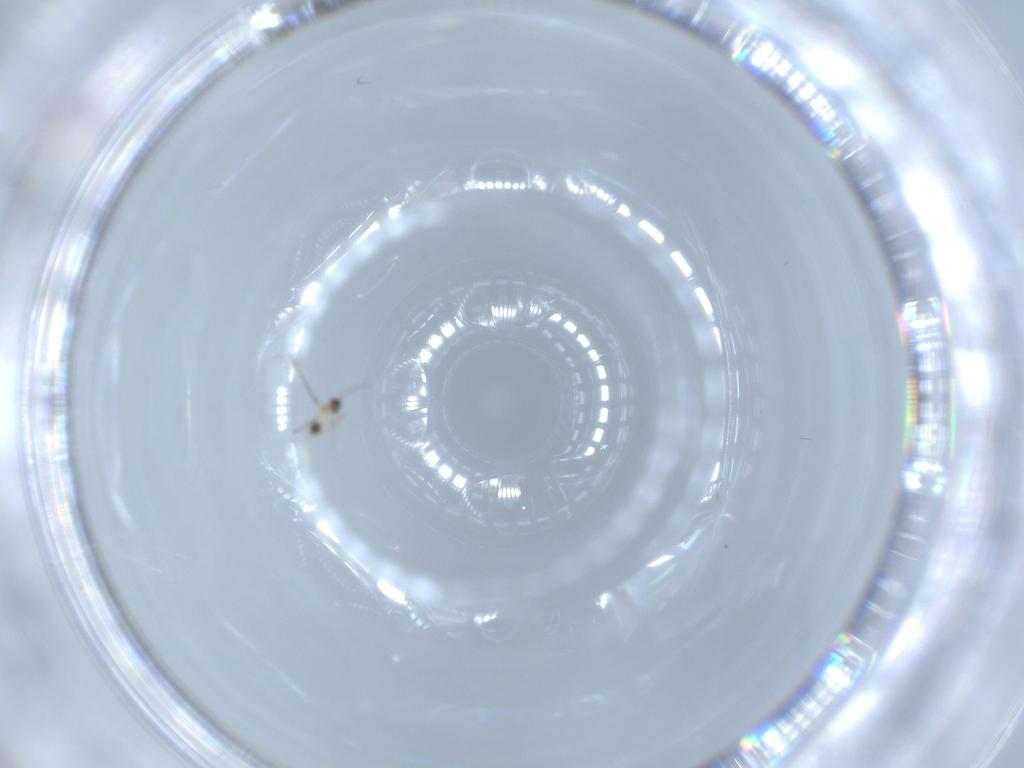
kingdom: Animalia
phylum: Arthropoda
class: Insecta
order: Hymenoptera
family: Mymaridae
